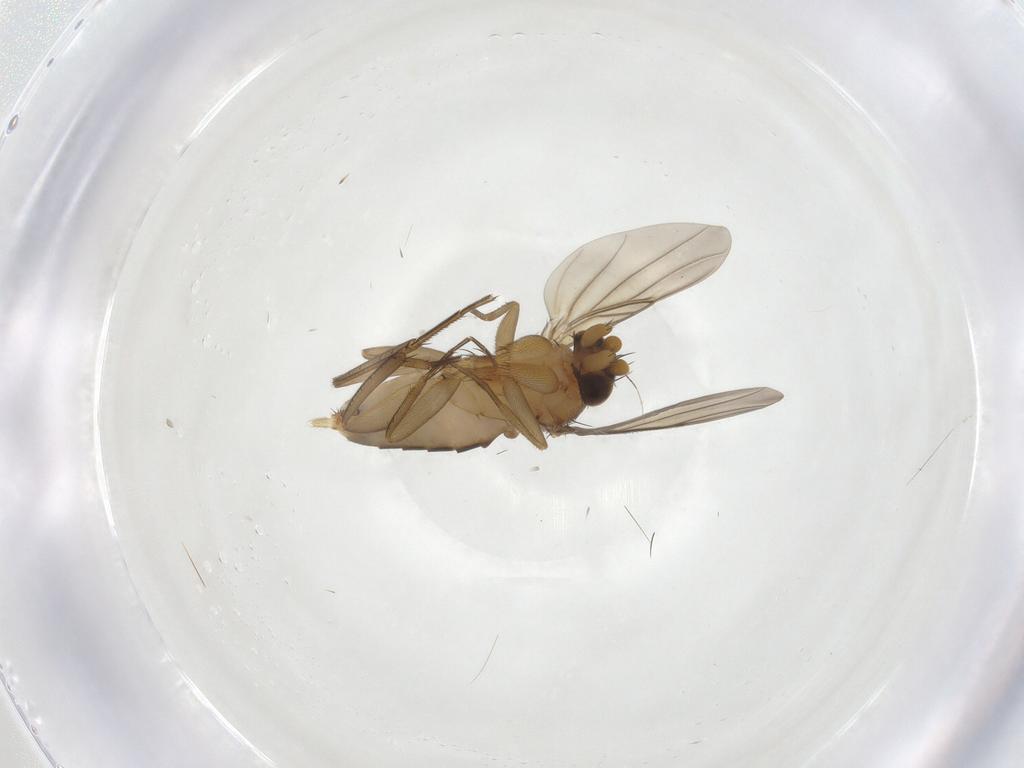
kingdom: Animalia
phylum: Arthropoda
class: Insecta
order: Diptera
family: Phoridae
